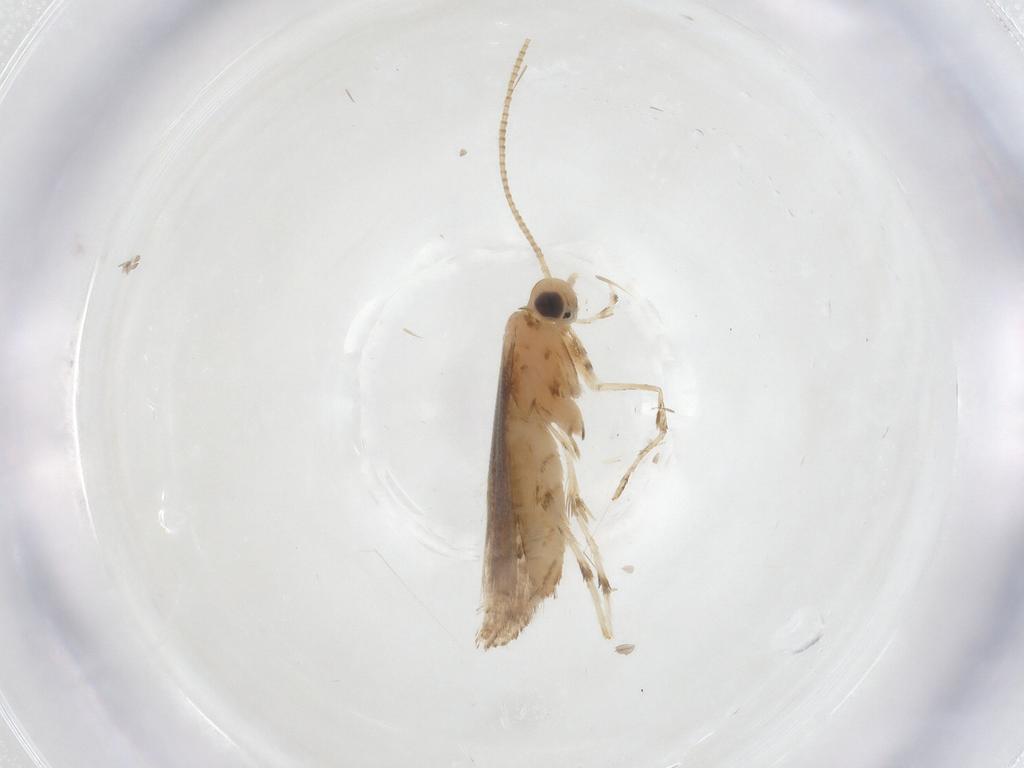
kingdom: Animalia
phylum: Arthropoda
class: Insecta
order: Lepidoptera
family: Gracillariidae
